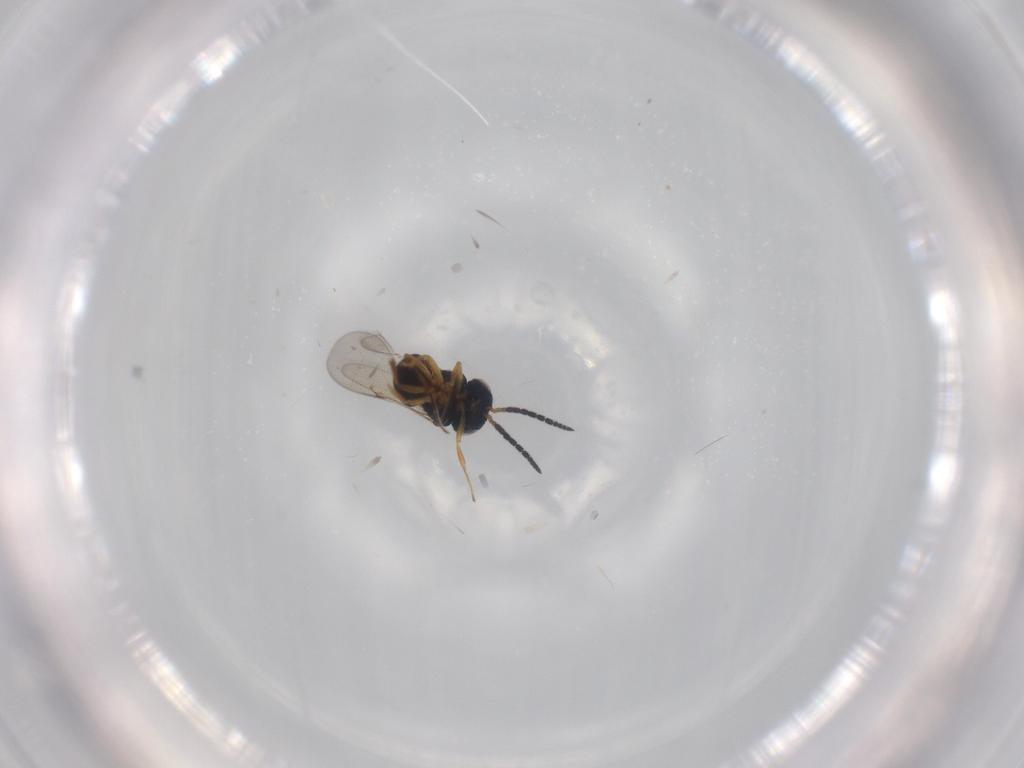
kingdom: Animalia
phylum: Arthropoda
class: Insecta
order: Coleoptera
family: Curculionidae
